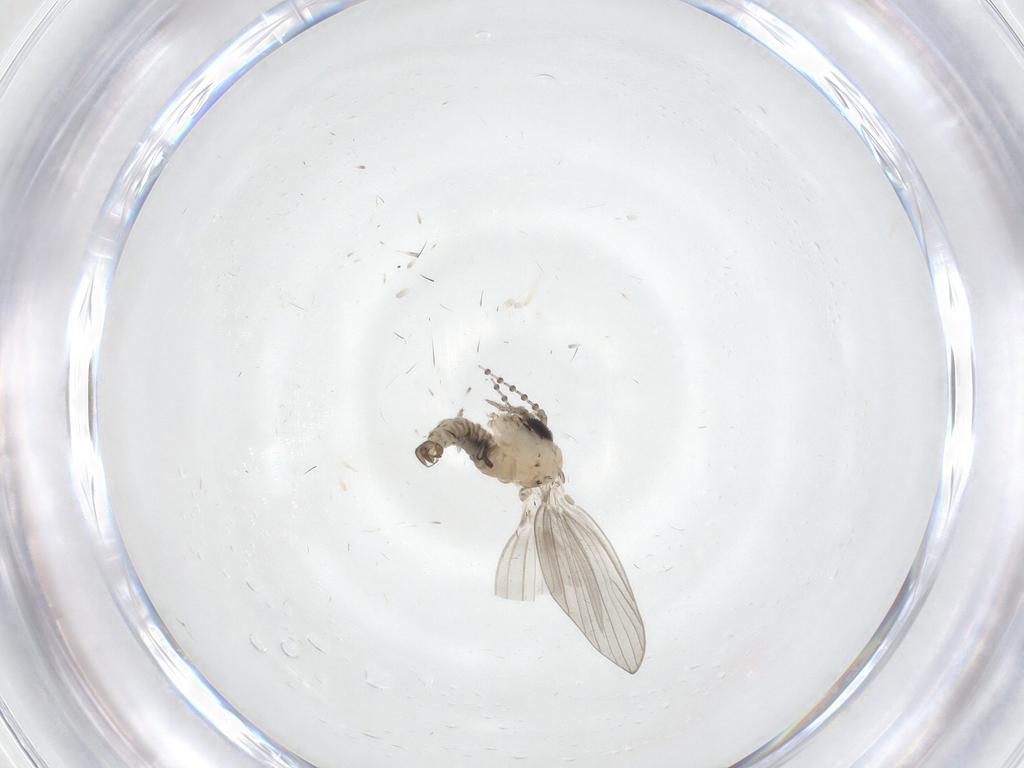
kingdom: Animalia
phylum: Arthropoda
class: Insecta
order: Diptera
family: Psychodidae
